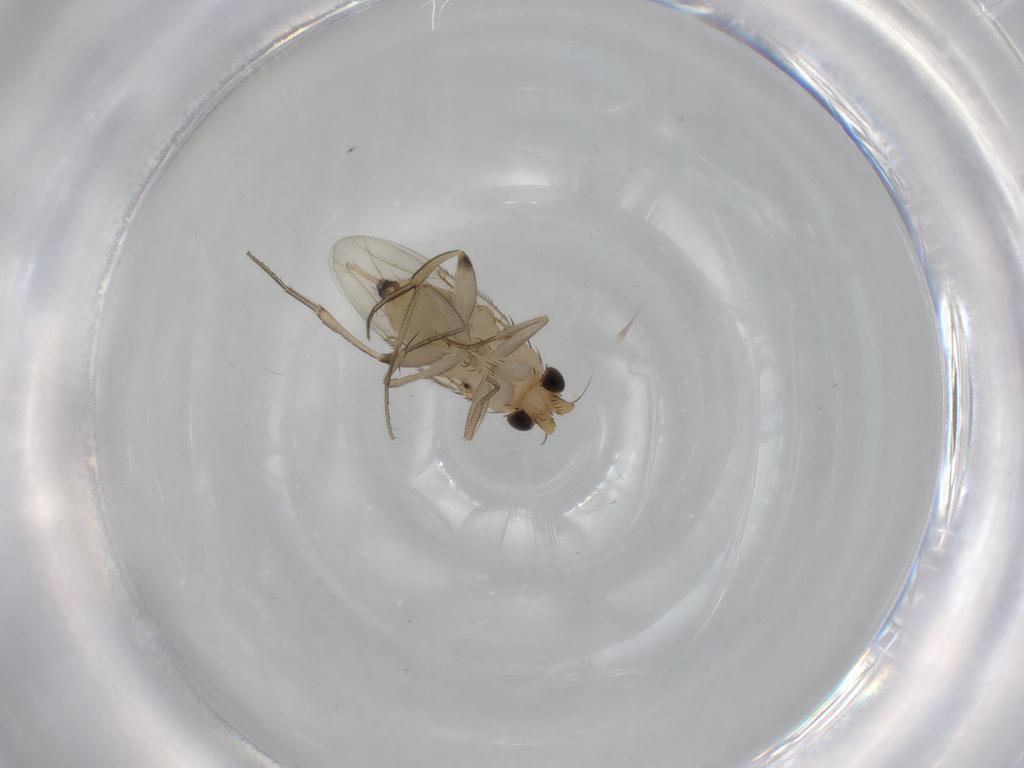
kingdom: Animalia
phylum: Arthropoda
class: Insecta
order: Diptera
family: Phoridae
